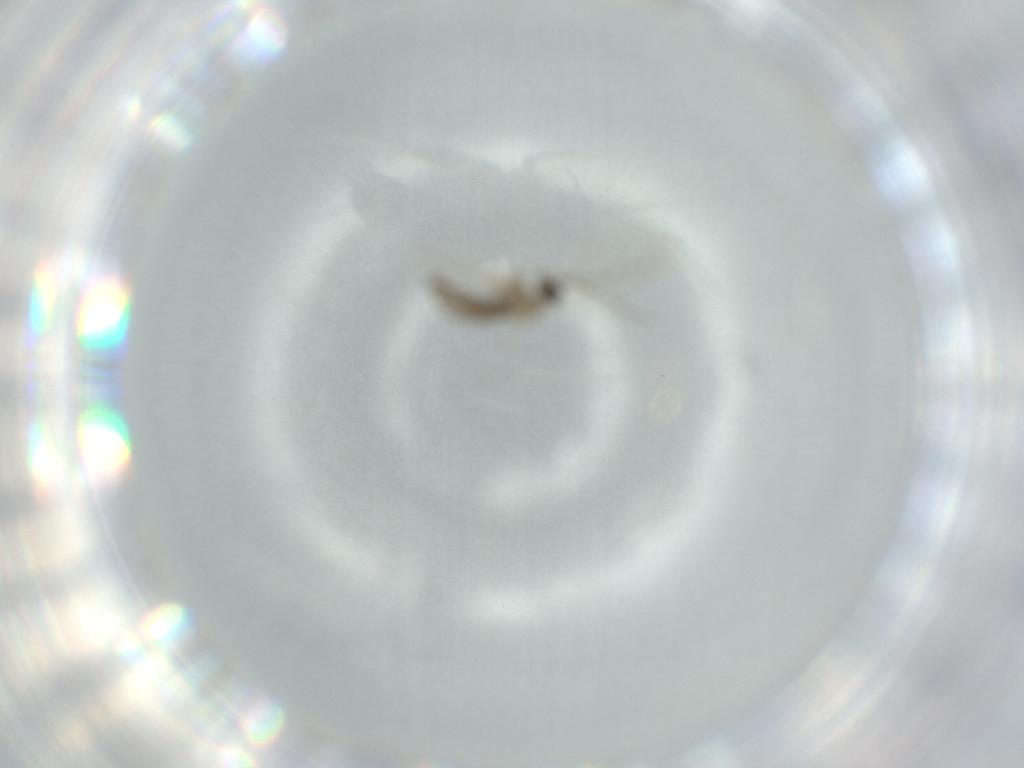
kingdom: Animalia
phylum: Arthropoda
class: Insecta
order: Diptera
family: Cecidomyiidae
